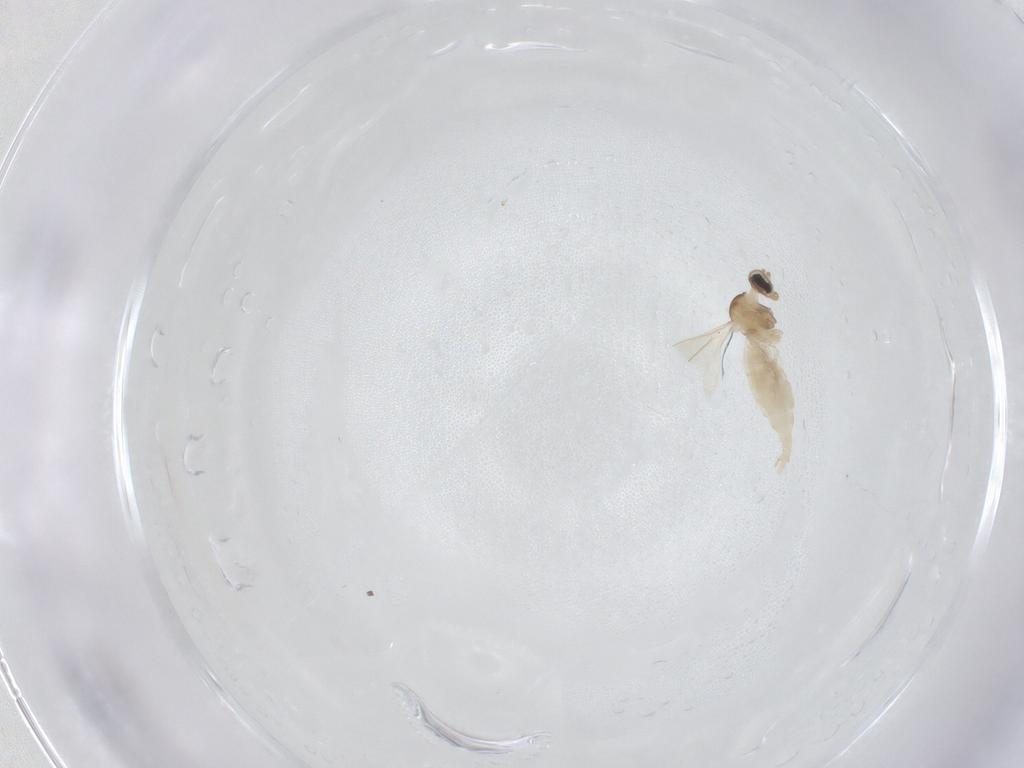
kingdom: Animalia
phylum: Arthropoda
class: Insecta
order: Diptera
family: Cecidomyiidae
